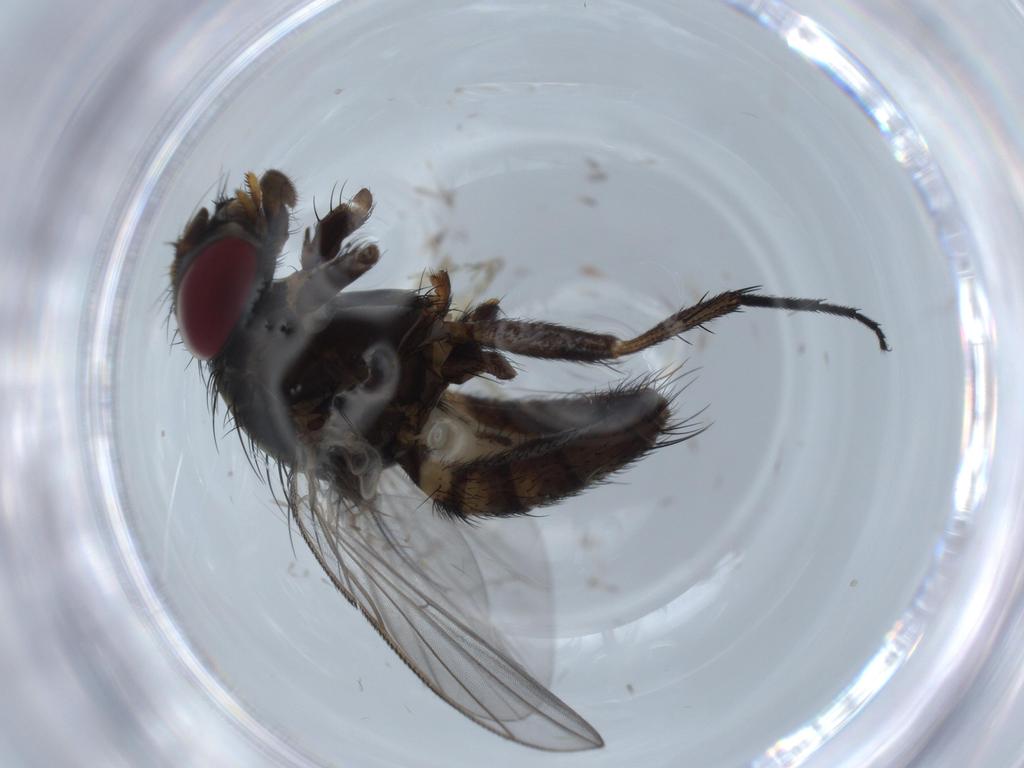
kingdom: Animalia
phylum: Arthropoda
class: Insecta
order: Diptera
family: Fannia
